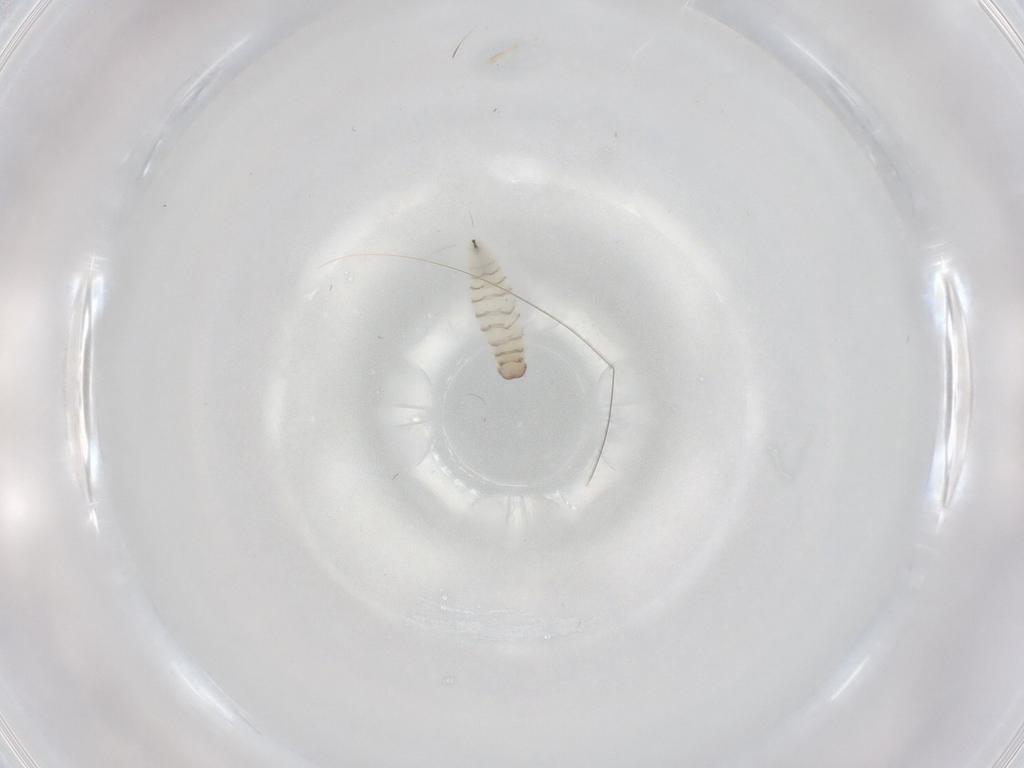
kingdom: Animalia
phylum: Arthropoda
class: Insecta
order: Diptera
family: Sarcophagidae
